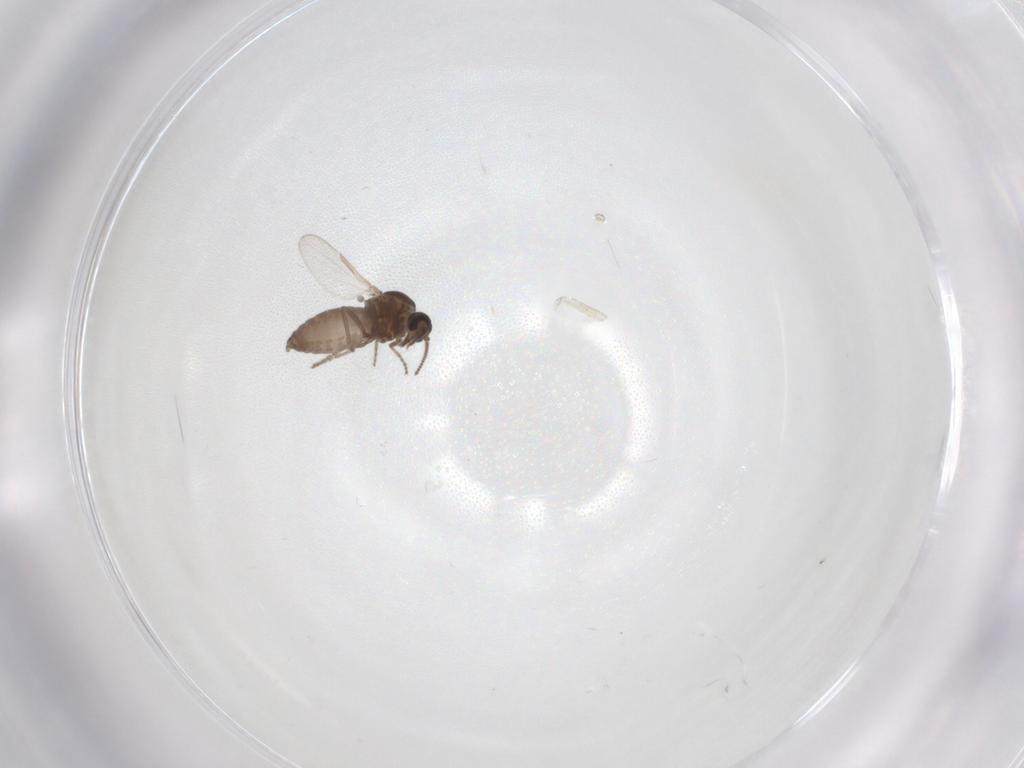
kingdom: Animalia
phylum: Arthropoda
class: Insecta
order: Diptera
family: Ceratopogonidae
